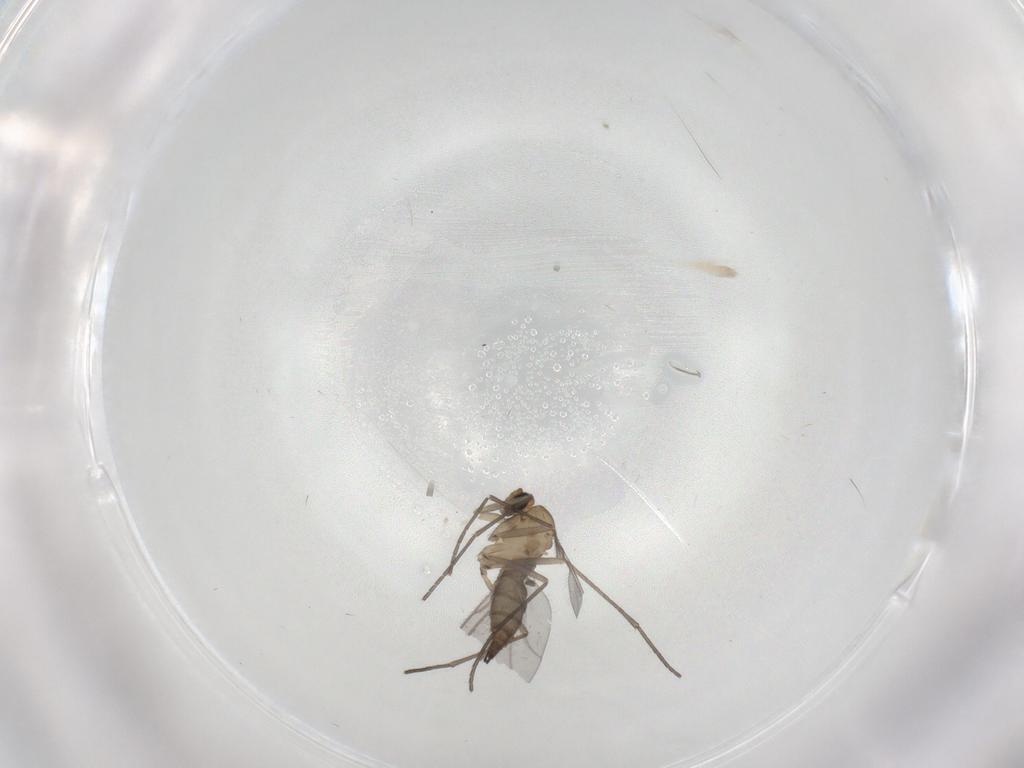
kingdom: Animalia
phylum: Arthropoda
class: Insecta
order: Diptera
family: Sciaridae
